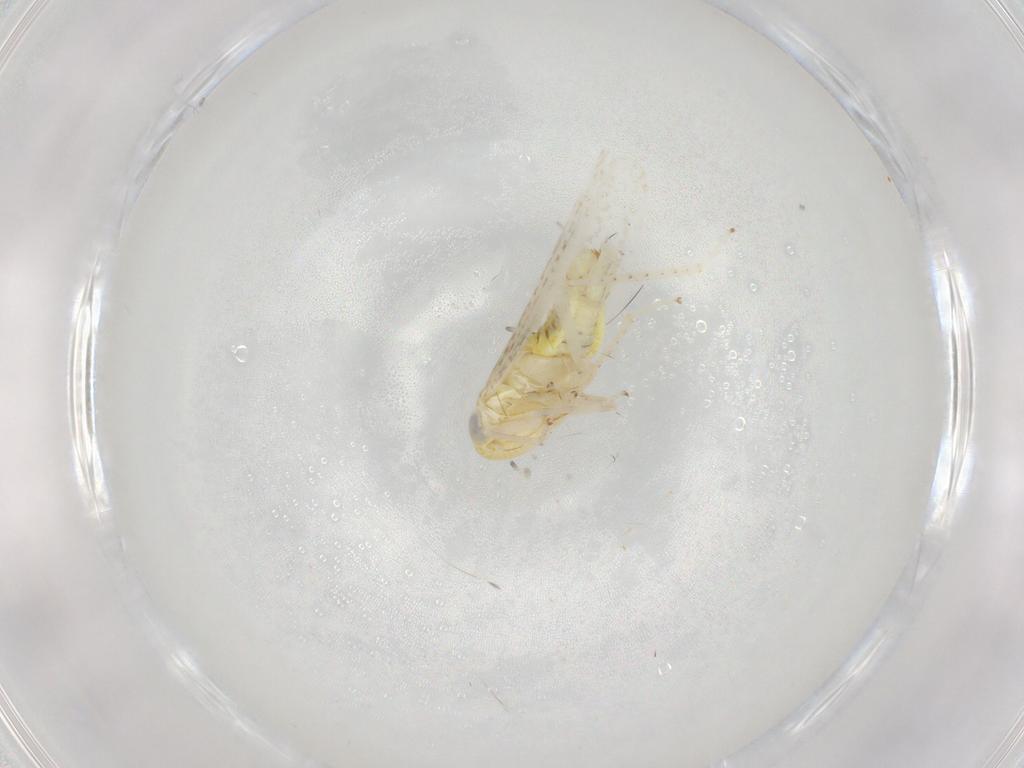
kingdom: Animalia
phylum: Arthropoda
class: Insecta
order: Hemiptera
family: Cicadellidae
